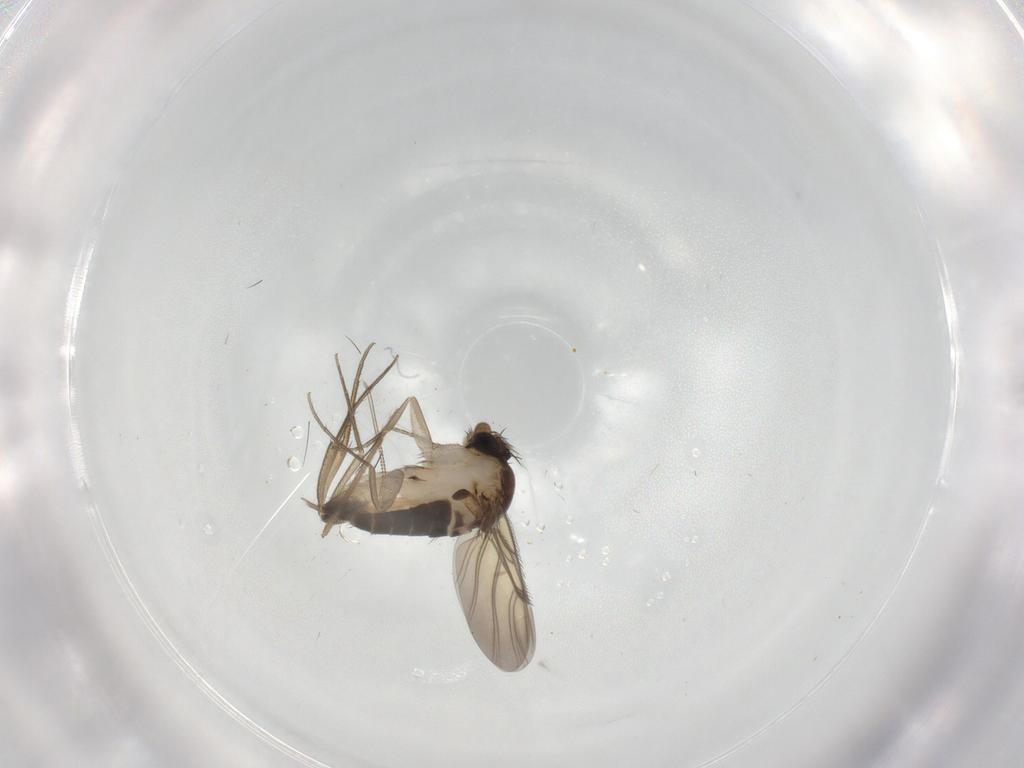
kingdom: Animalia
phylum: Arthropoda
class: Insecta
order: Diptera
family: Phoridae
